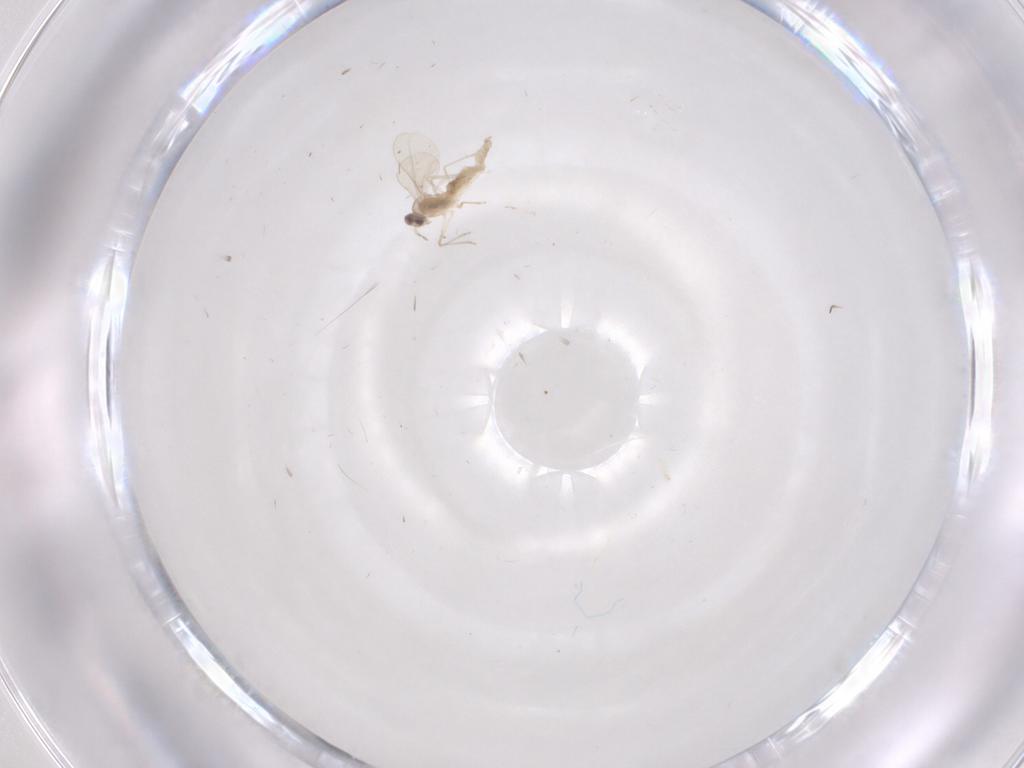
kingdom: Animalia
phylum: Arthropoda
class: Insecta
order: Diptera
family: Cecidomyiidae
